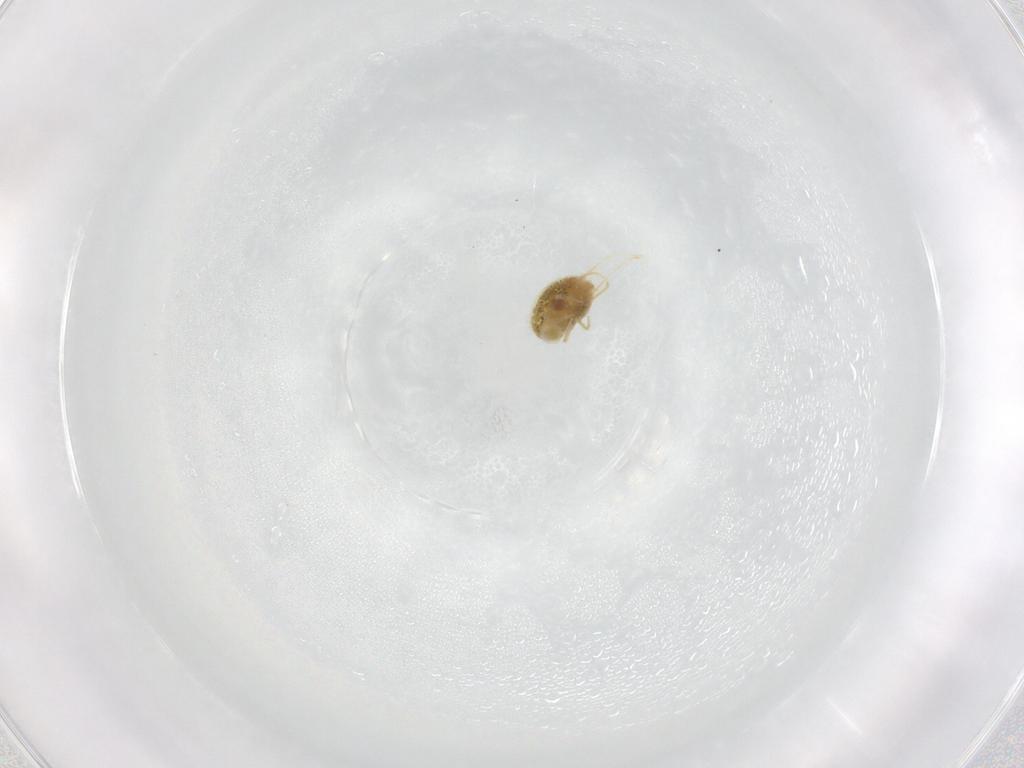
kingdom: Animalia
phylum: Arthropoda
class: Arachnida
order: Trombidiformes
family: Tetranychidae
